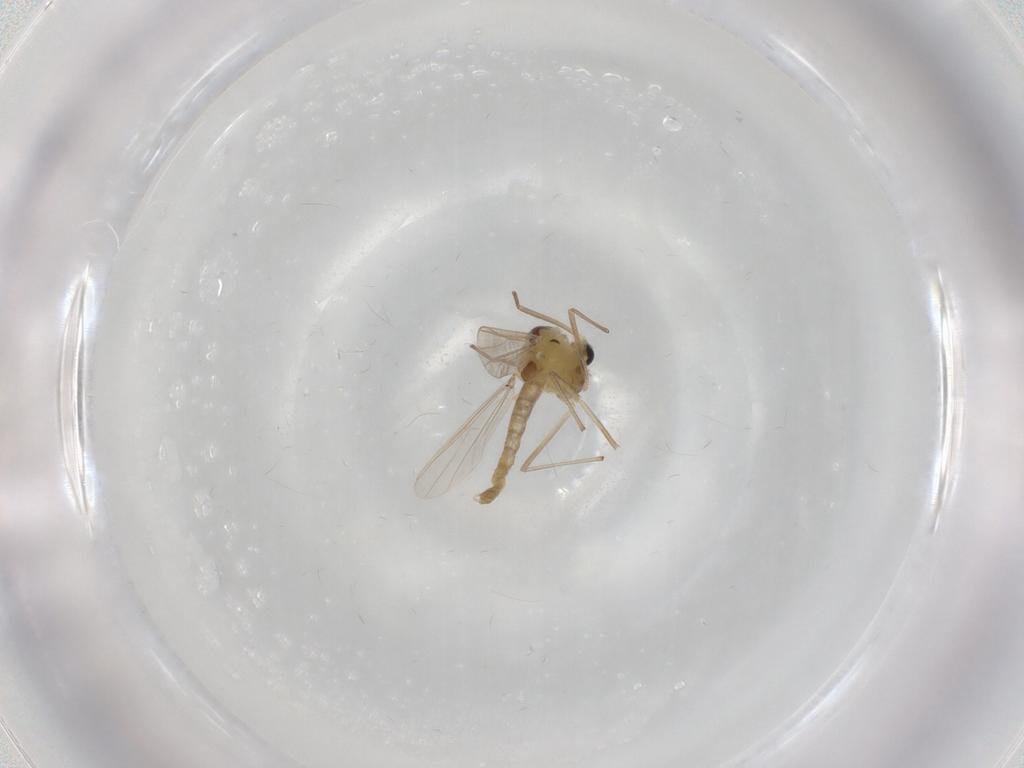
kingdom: Animalia
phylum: Arthropoda
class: Insecta
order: Diptera
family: Chironomidae
